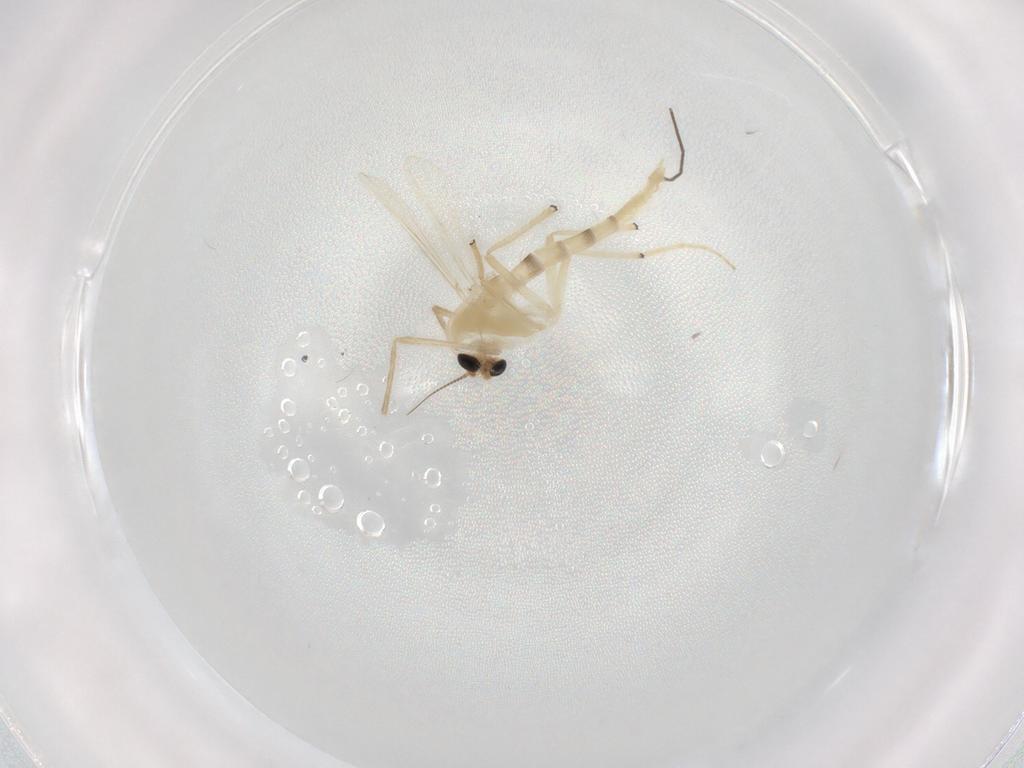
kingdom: Animalia
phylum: Arthropoda
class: Insecta
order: Diptera
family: Chironomidae
